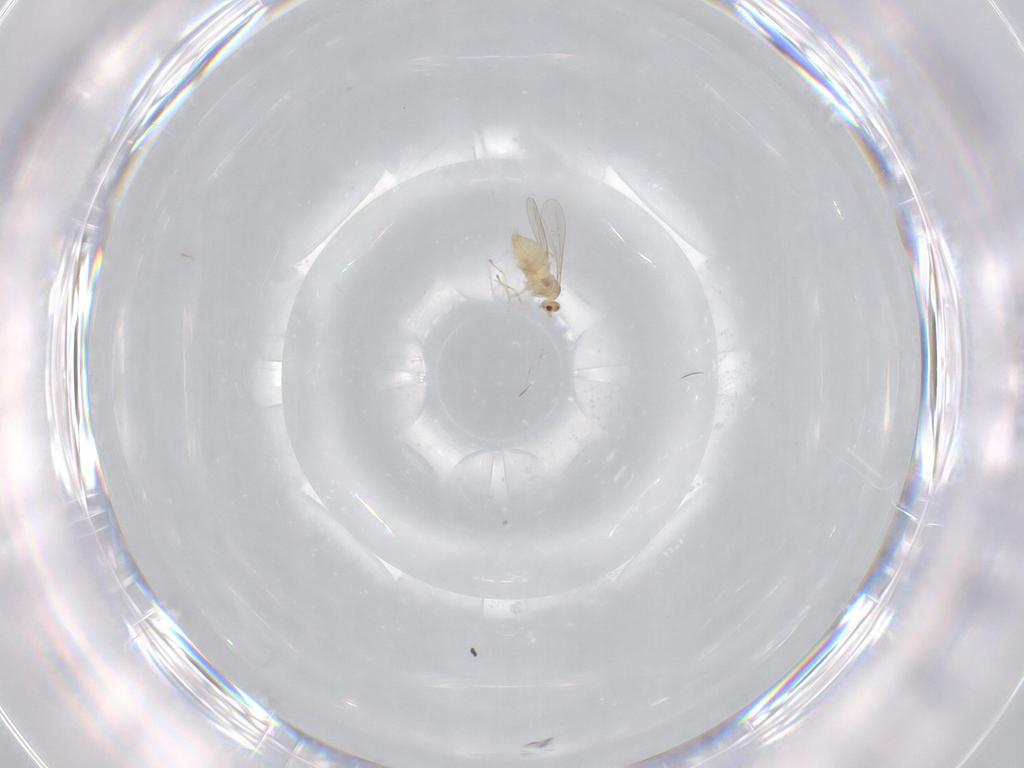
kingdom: Animalia
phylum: Arthropoda
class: Insecta
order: Diptera
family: Cecidomyiidae
